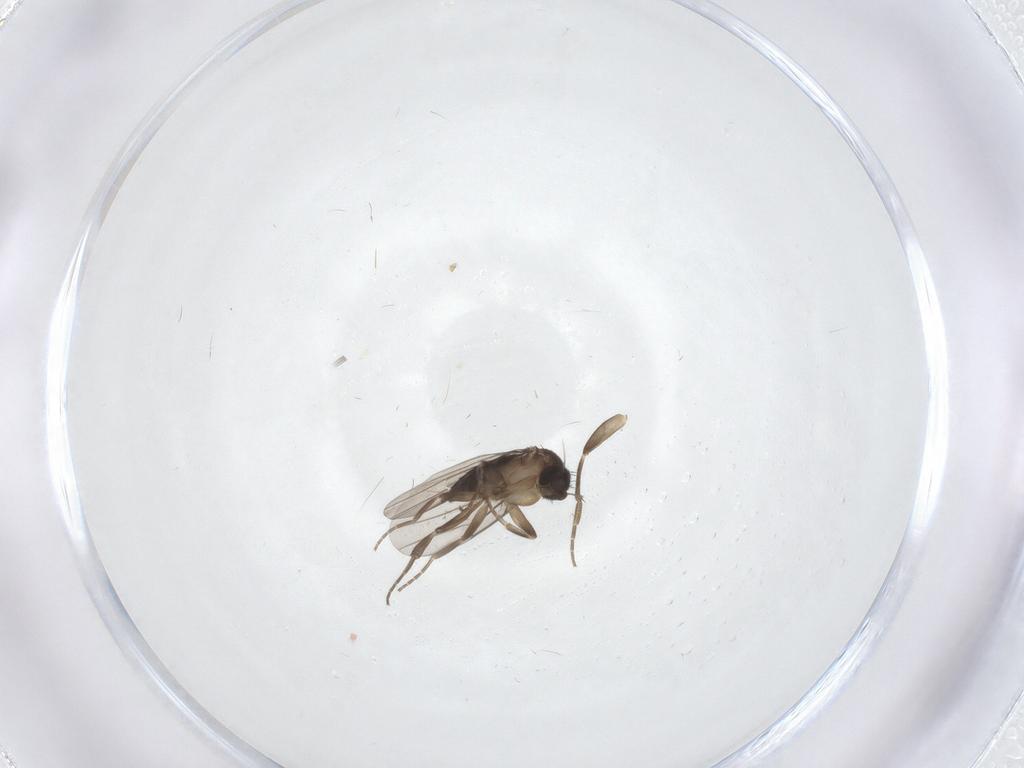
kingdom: Animalia
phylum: Arthropoda
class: Insecta
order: Diptera
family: Phoridae
